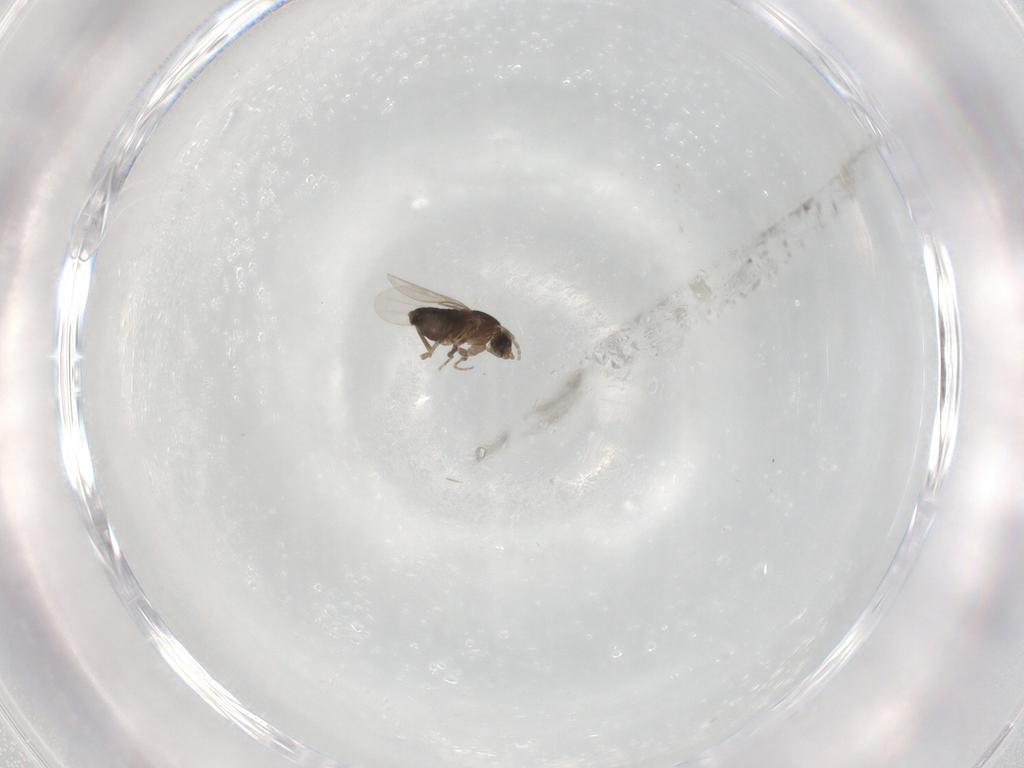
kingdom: Animalia
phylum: Arthropoda
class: Insecta
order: Diptera
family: Phoridae
